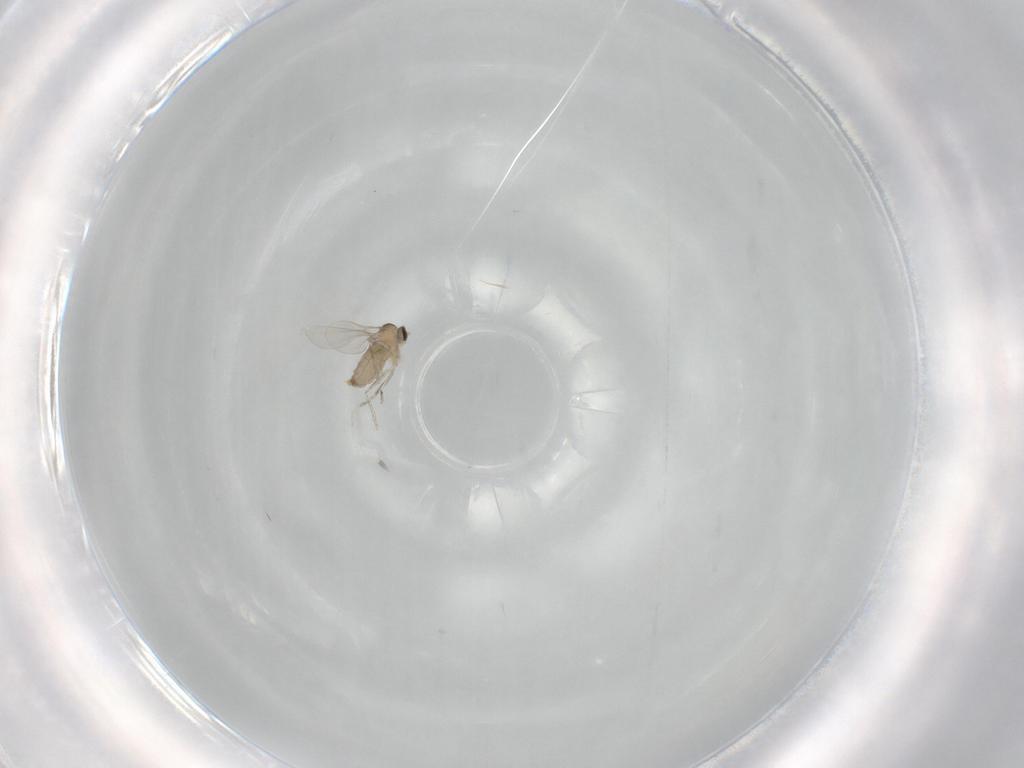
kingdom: Animalia
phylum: Arthropoda
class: Insecta
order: Diptera
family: Cecidomyiidae
